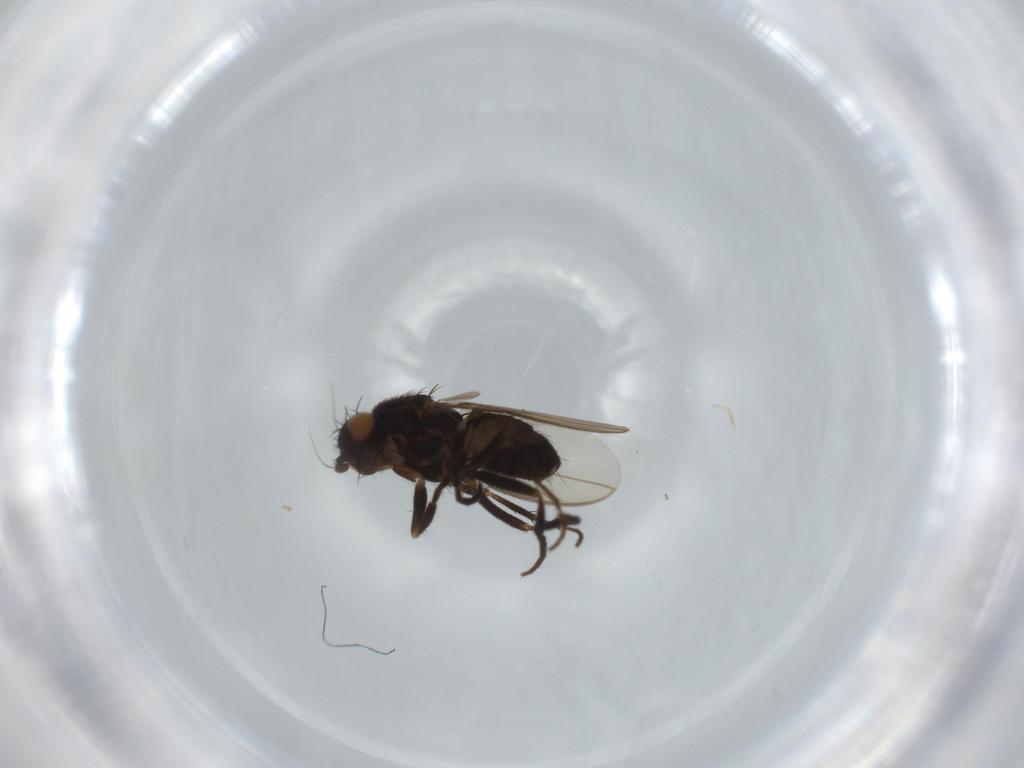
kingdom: Animalia
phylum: Arthropoda
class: Insecta
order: Diptera
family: Sphaeroceridae
